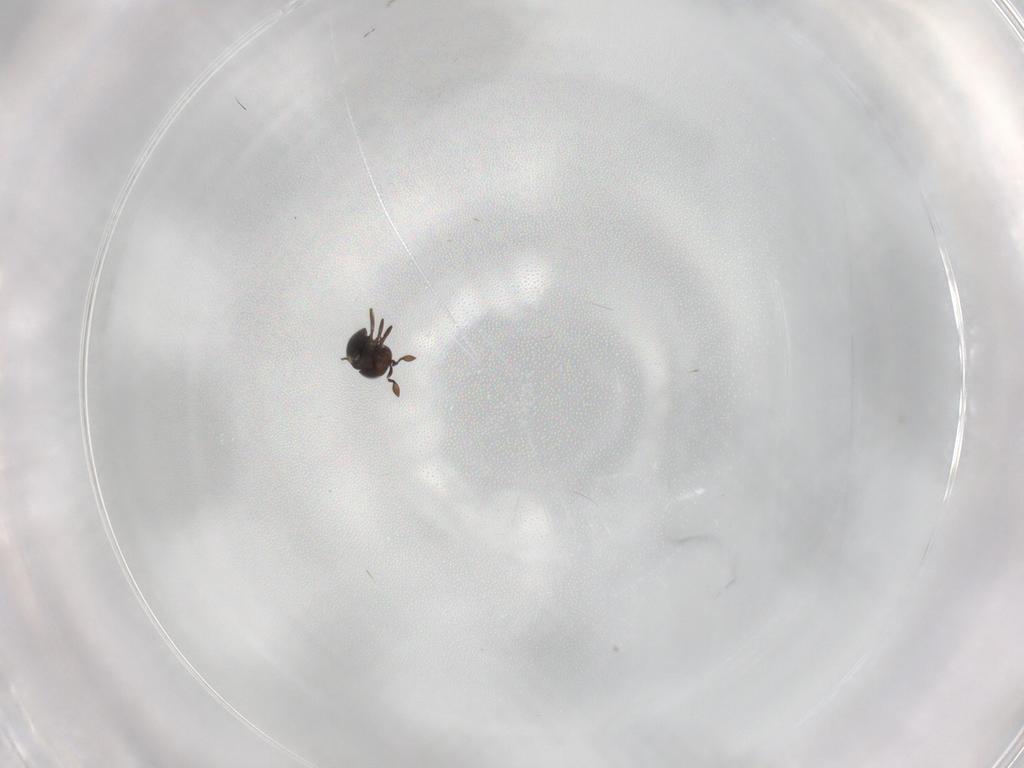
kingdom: Animalia
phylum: Arthropoda
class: Insecta
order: Hymenoptera
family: Scelionidae
